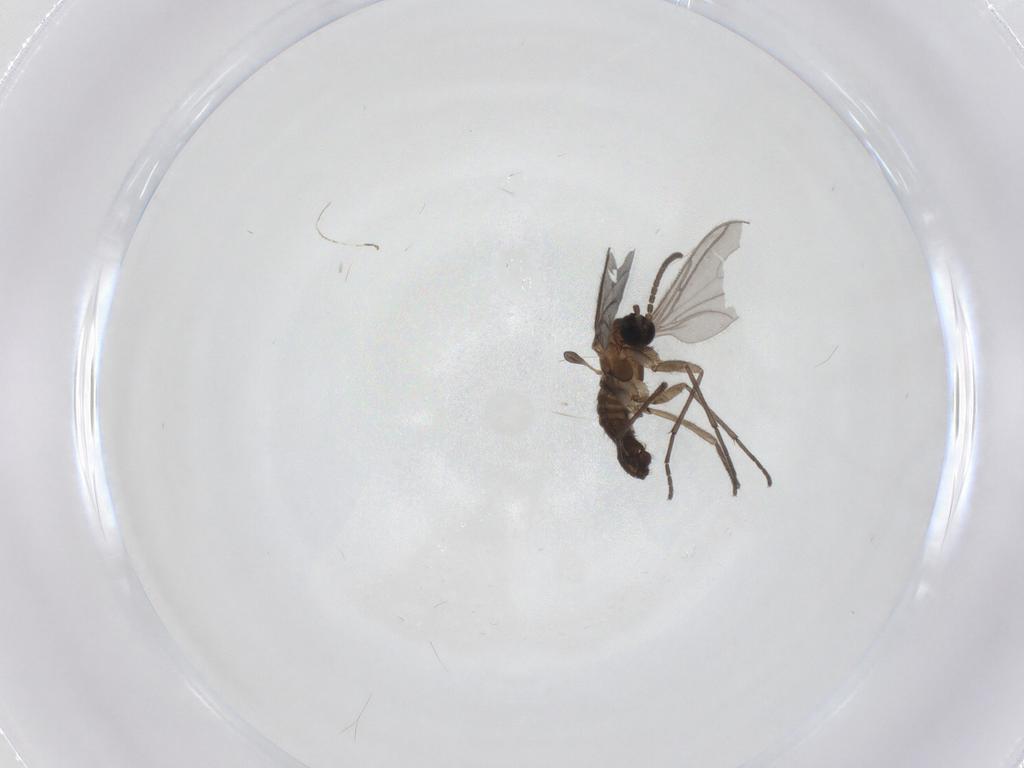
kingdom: Animalia
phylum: Arthropoda
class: Insecta
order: Diptera
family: Sciaridae
